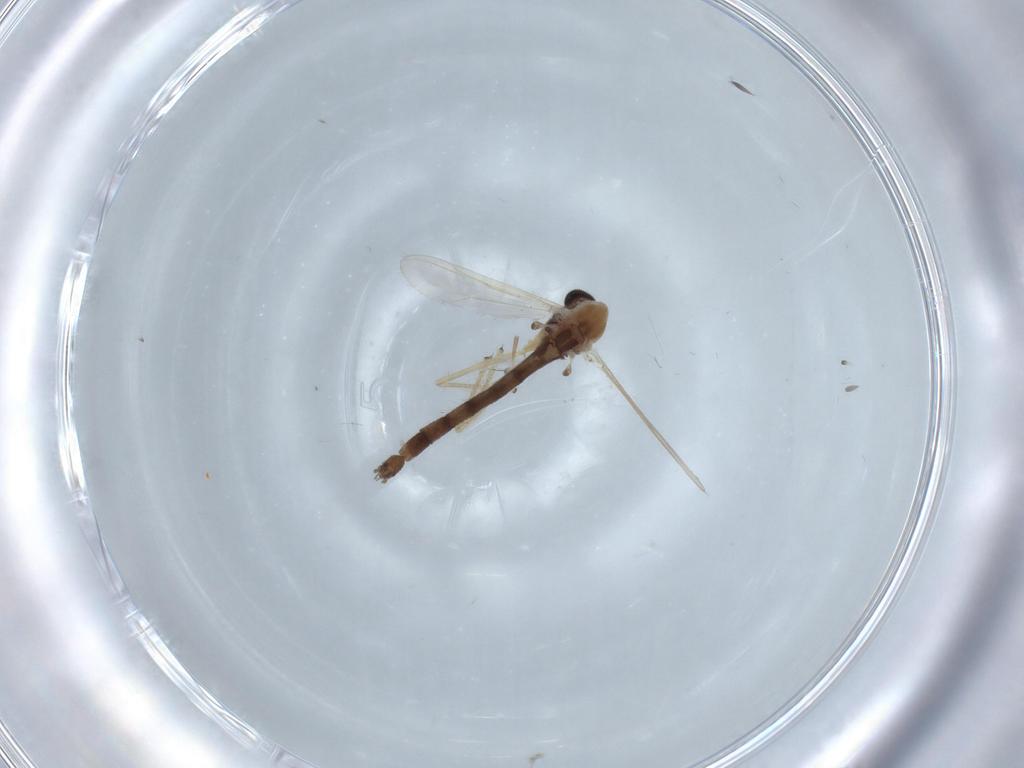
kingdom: Animalia
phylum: Arthropoda
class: Insecta
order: Diptera
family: Chironomidae
